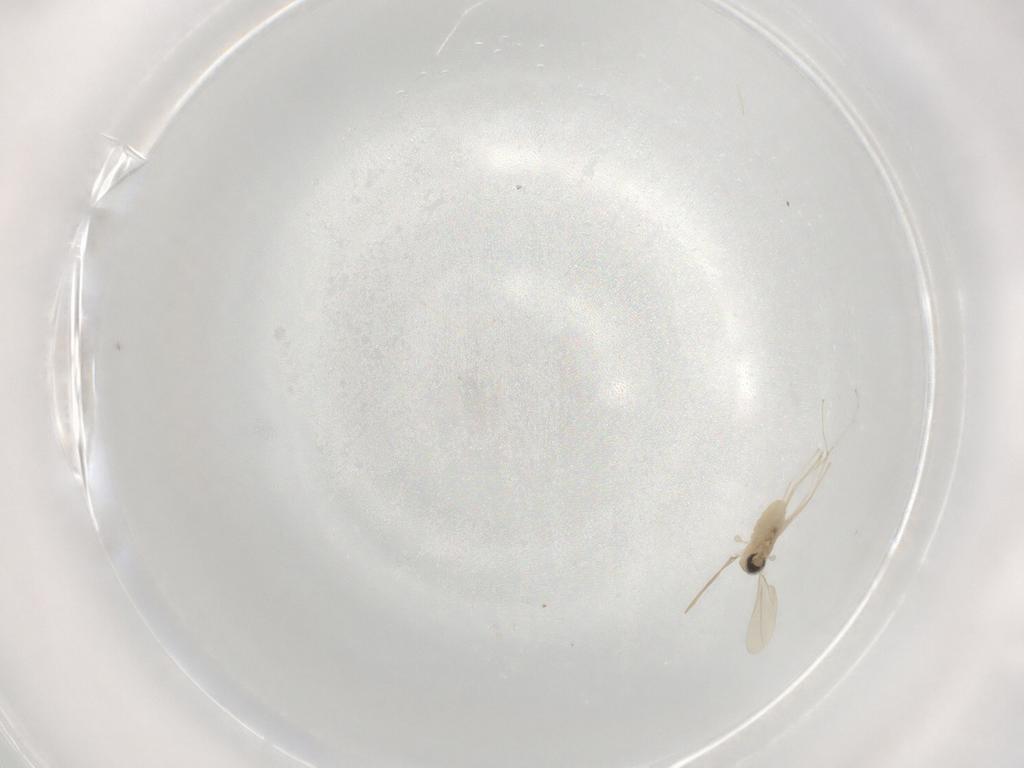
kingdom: Animalia
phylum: Arthropoda
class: Insecta
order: Diptera
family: Cecidomyiidae
